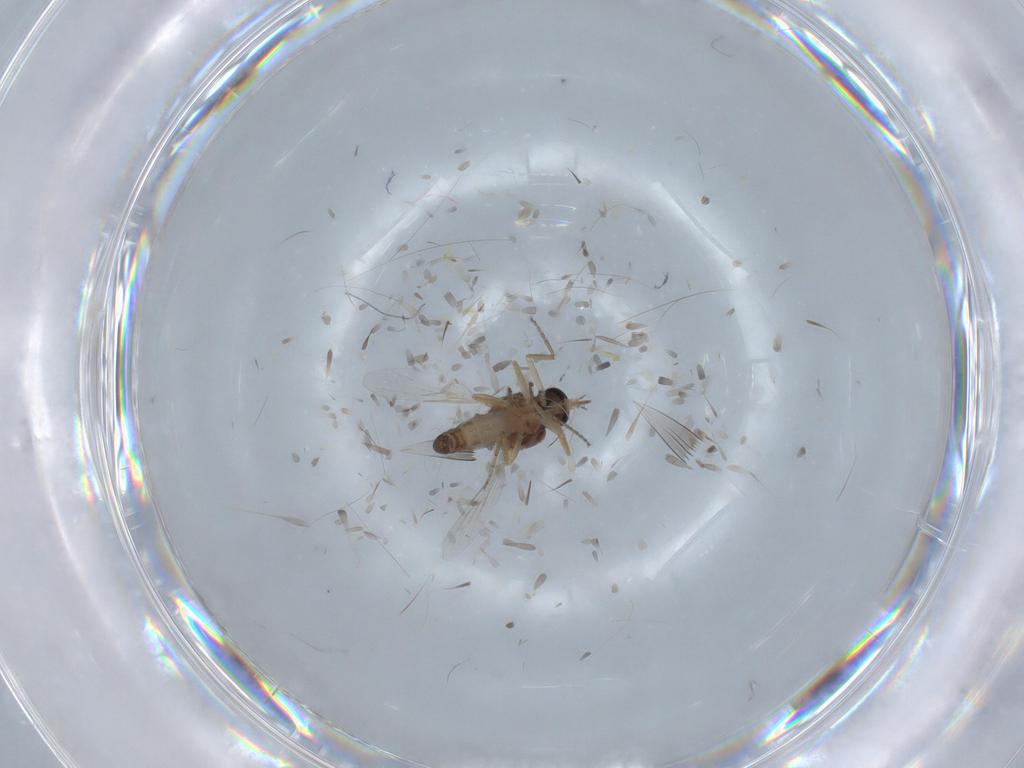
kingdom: Animalia
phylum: Arthropoda
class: Insecta
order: Diptera
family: Ceratopogonidae
